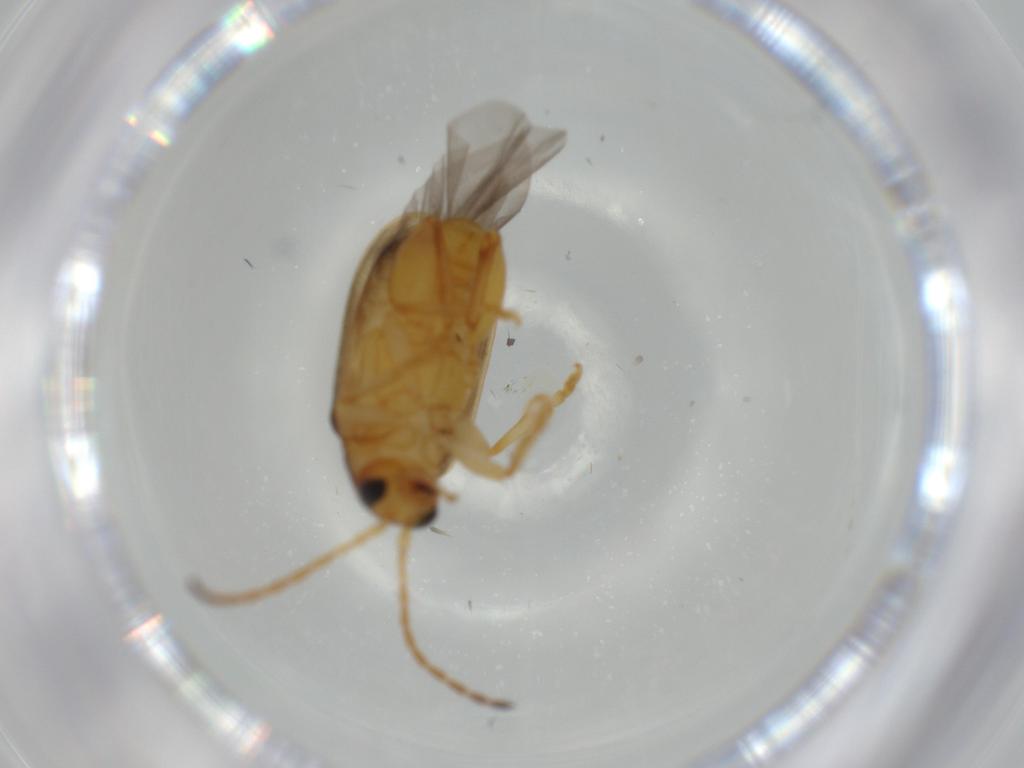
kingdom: Animalia
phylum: Arthropoda
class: Insecta
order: Coleoptera
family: Chrysomelidae
